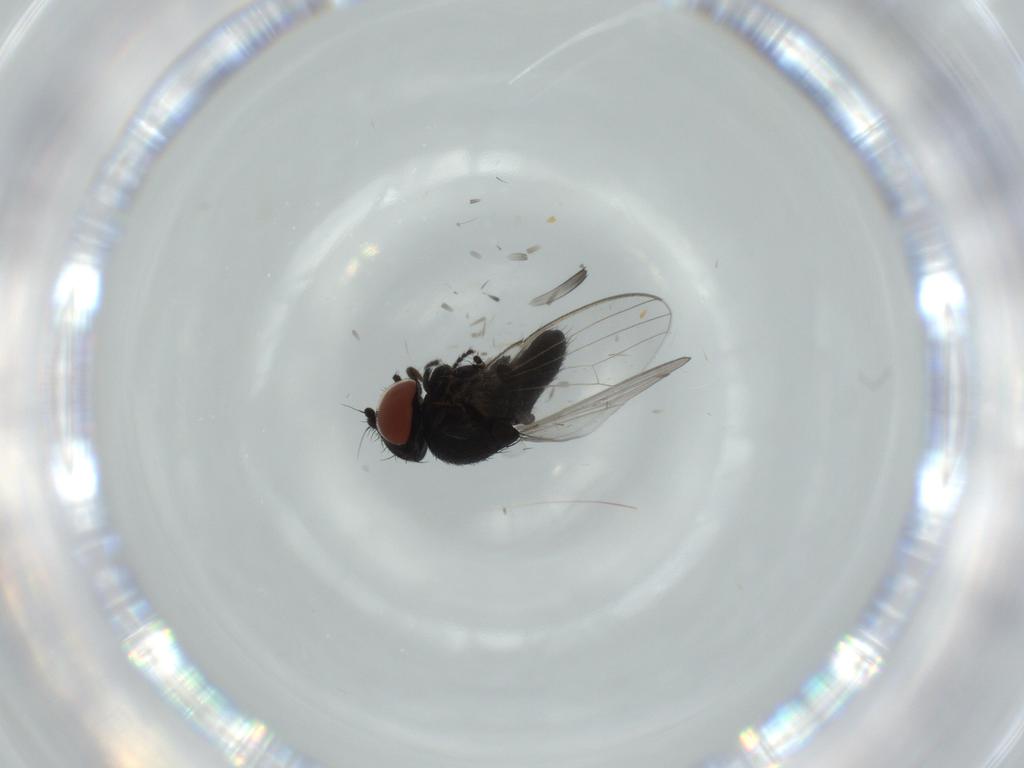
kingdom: Animalia
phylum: Arthropoda
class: Insecta
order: Diptera
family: Milichiidae
